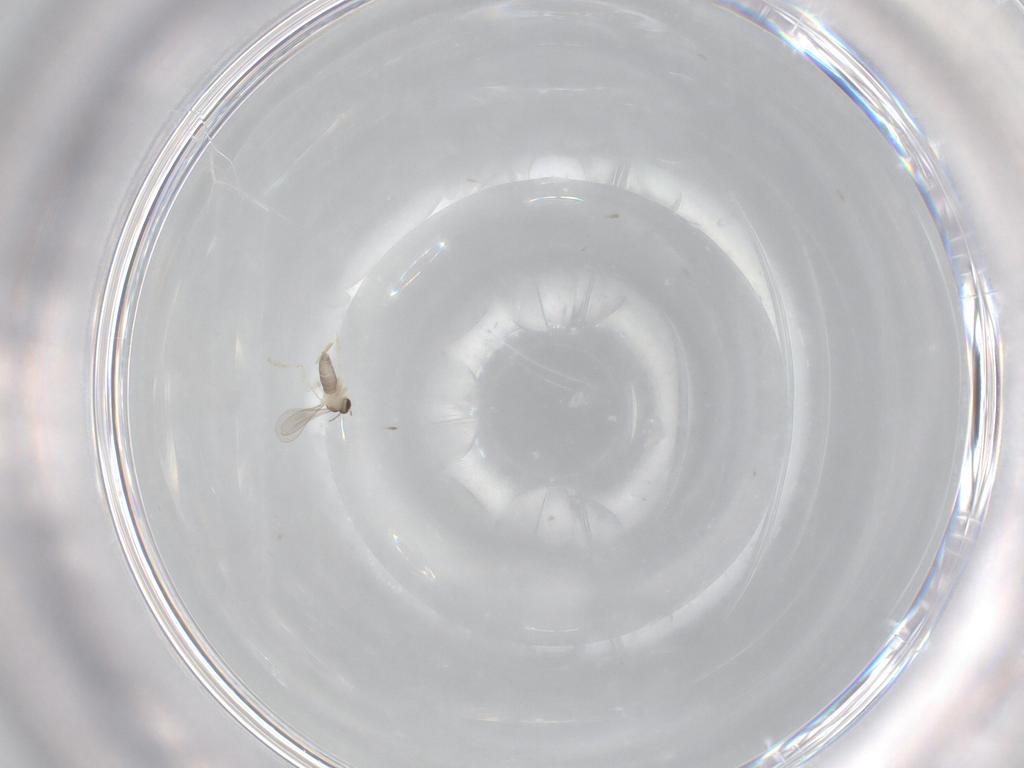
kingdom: Animalia
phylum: Arthropoda
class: Insecta
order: Diptera
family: Cecidomyiidae
